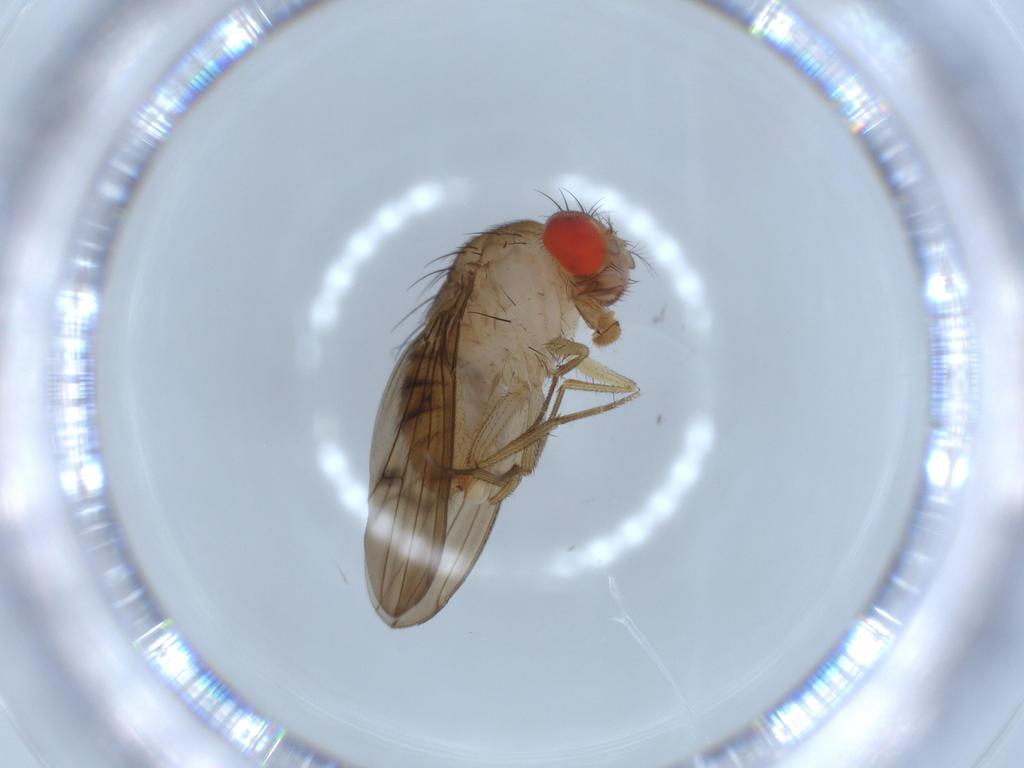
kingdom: Animalia
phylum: Arthropoda
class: Insecta
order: Diptera
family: Drosophilidae
